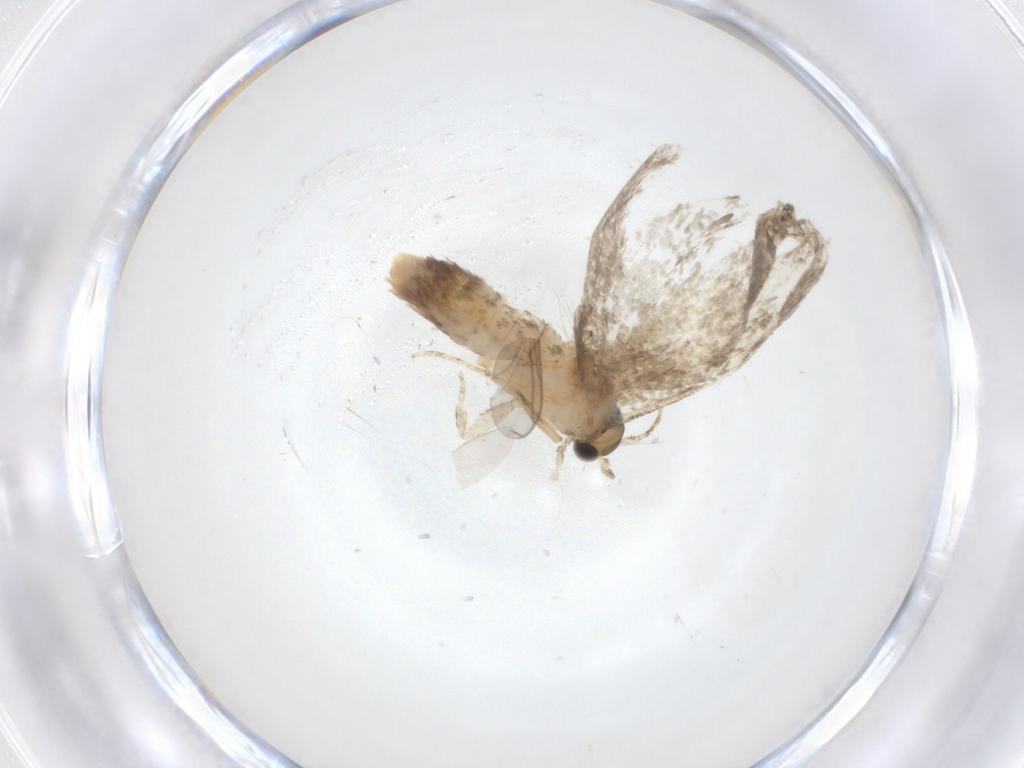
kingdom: Animalia
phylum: Arthropoda
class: Insecta
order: Lepidoptera
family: Tineidae
